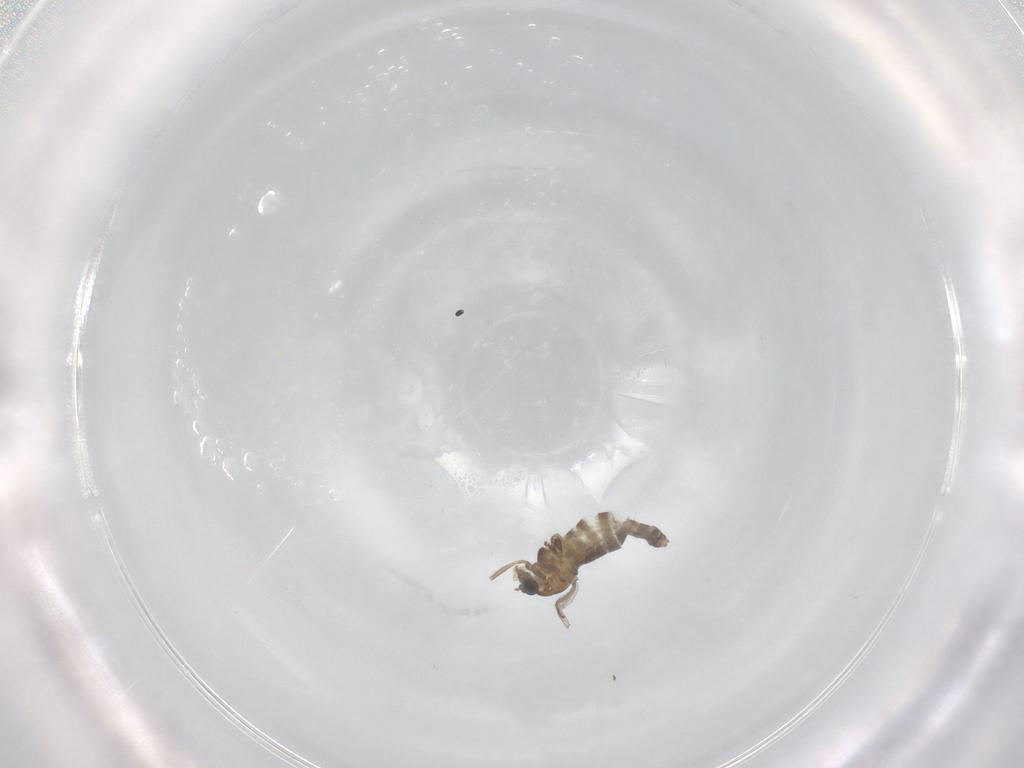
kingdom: Animalia
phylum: Arthropoda
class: Insecta
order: Diptera
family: Chironomidae
